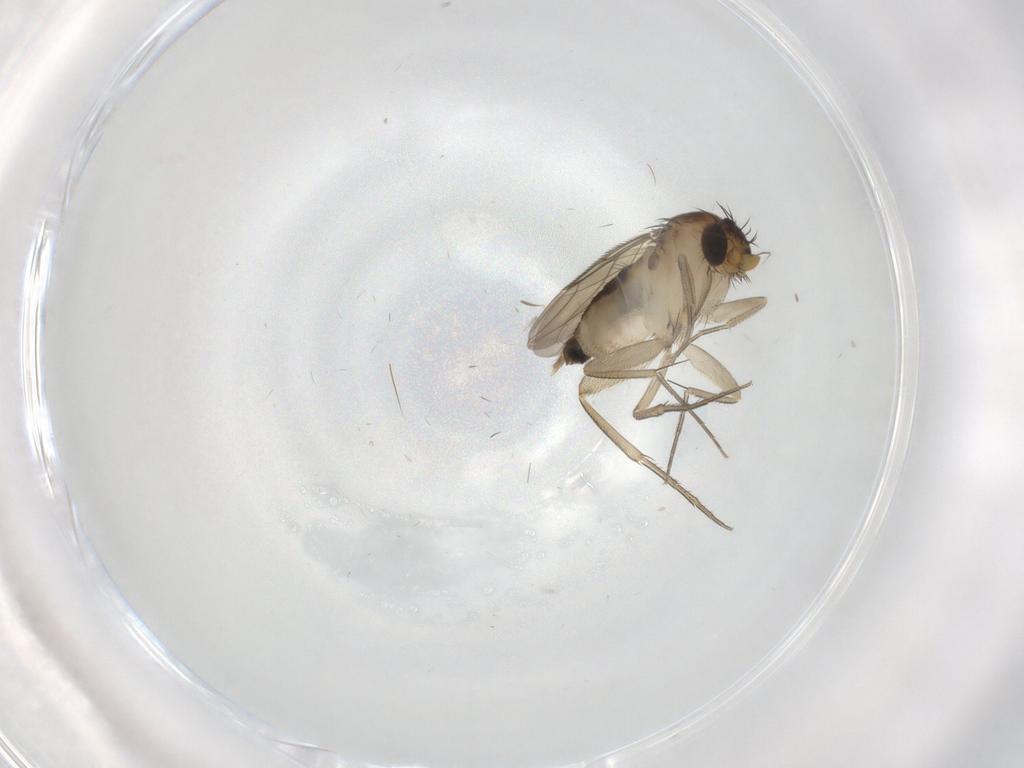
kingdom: Animalia
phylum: Arthropoda
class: Insecta
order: Diptera
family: Phoridae
